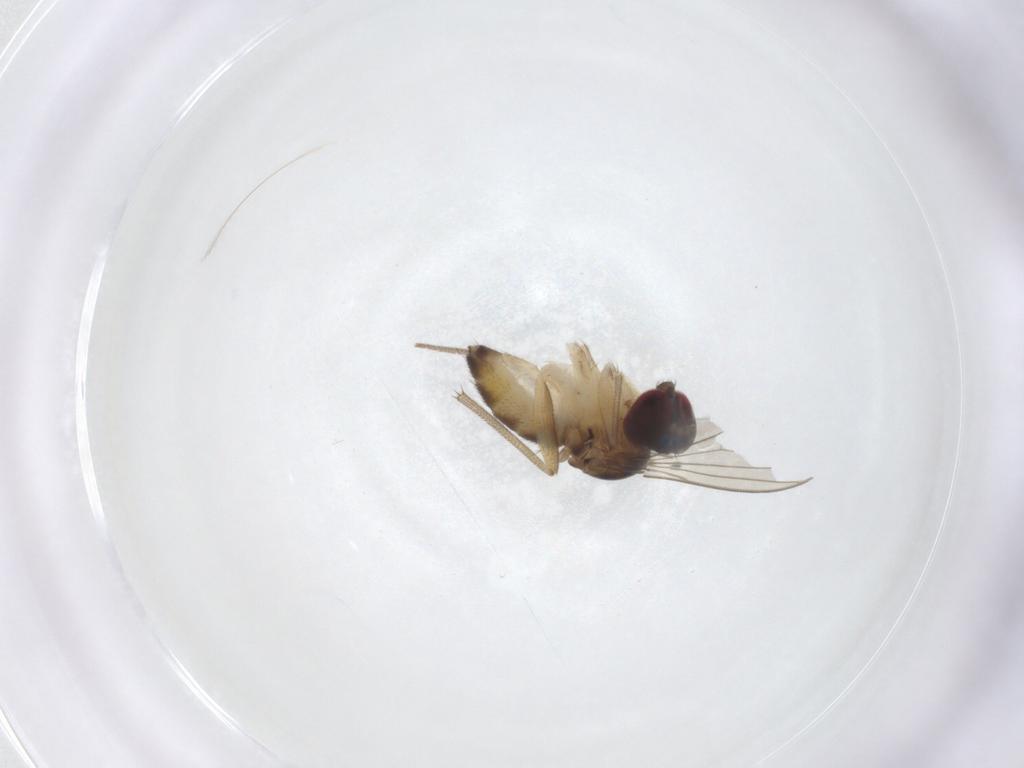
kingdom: Animalia
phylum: Arthropoda
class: Insecta
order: Diptera
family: Dolichopodidae
